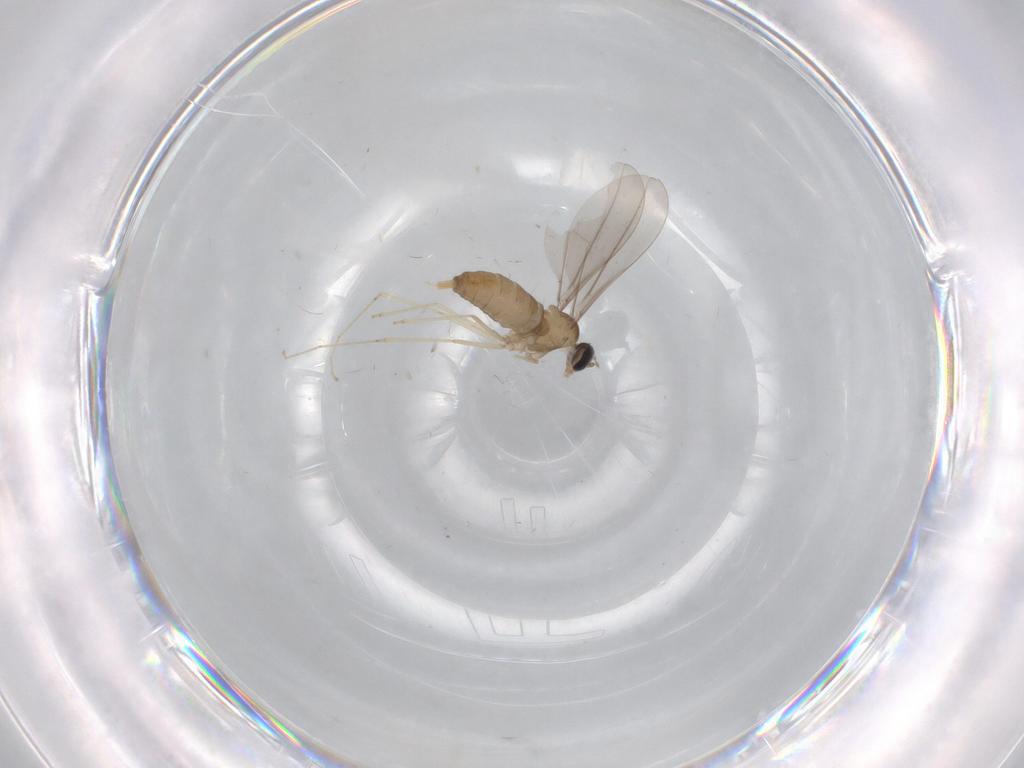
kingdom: Animalia
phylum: Arthropoda
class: Insecta
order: Diptera
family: Cecidomyiidae
